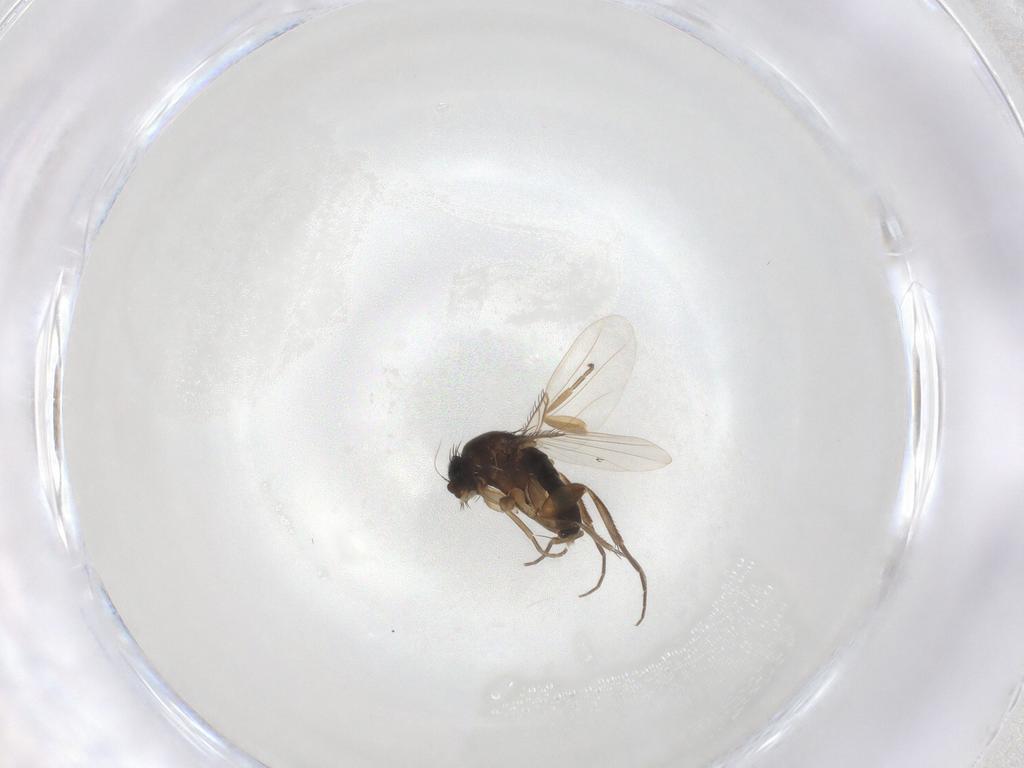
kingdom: Animalia
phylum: Arthropoda
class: Insecta
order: Diptera
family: Phoridae
